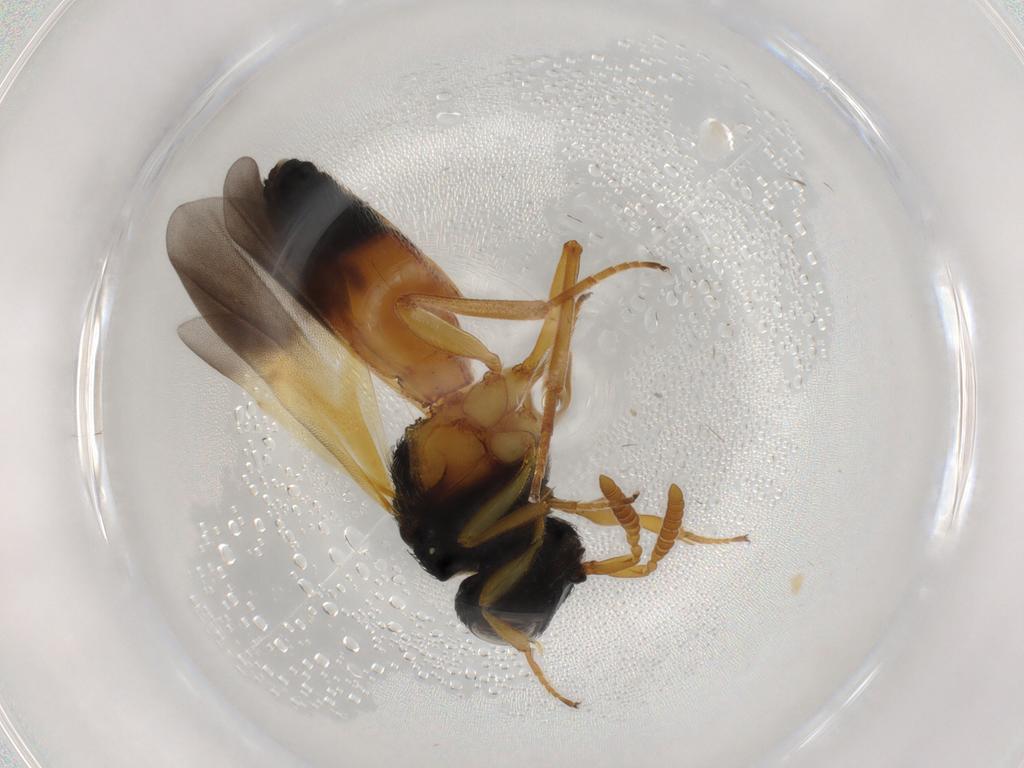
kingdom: Animalia
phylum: Arthropoda
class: Insecta
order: Hymenoptera
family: Scelionidae
